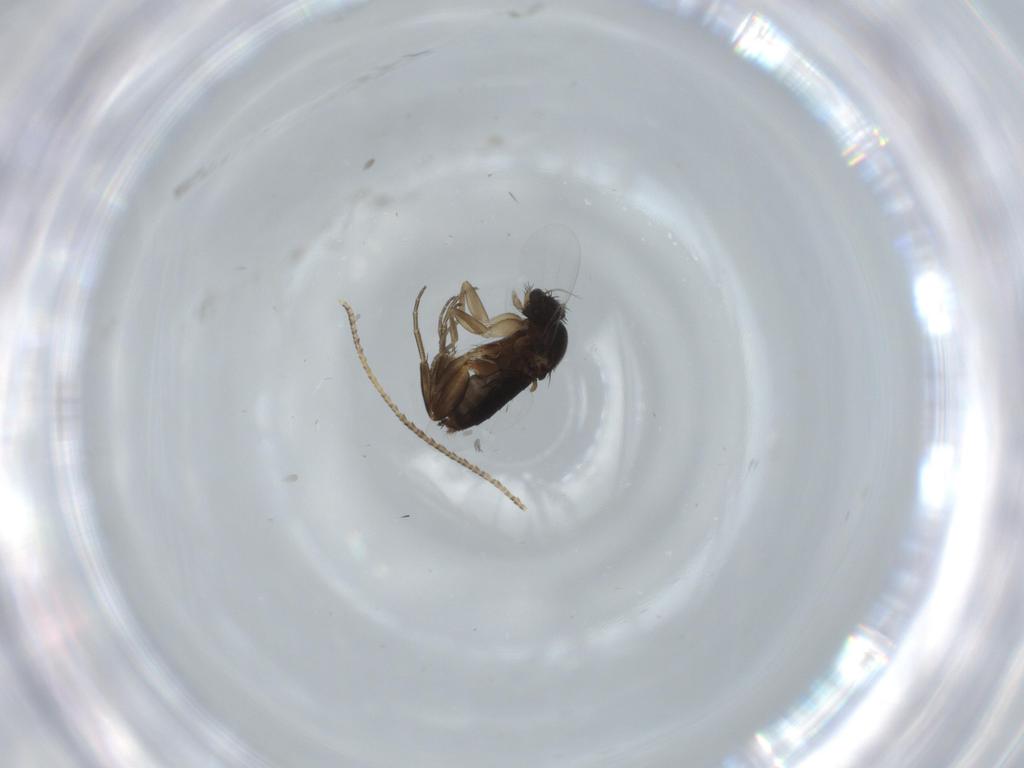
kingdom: Animalia
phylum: Arthropoda
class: Insecta
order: Diptera
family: Phoridae
